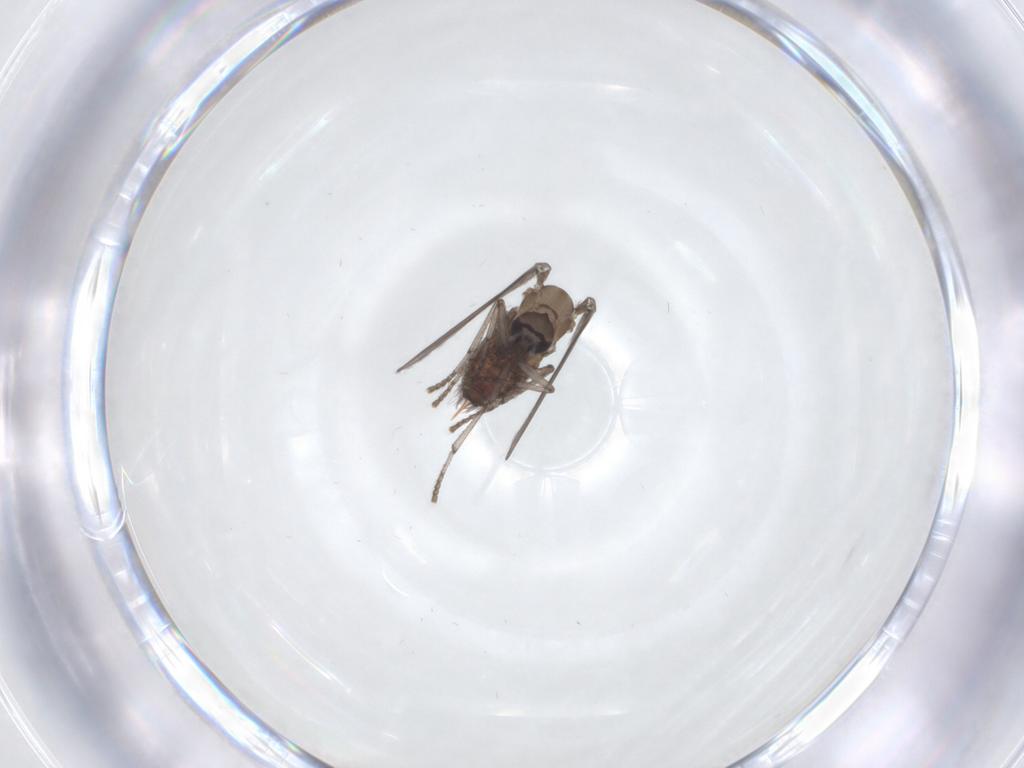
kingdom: Animalia
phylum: Arthropoda
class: Insecta
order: Diptera
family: Psychodidae
